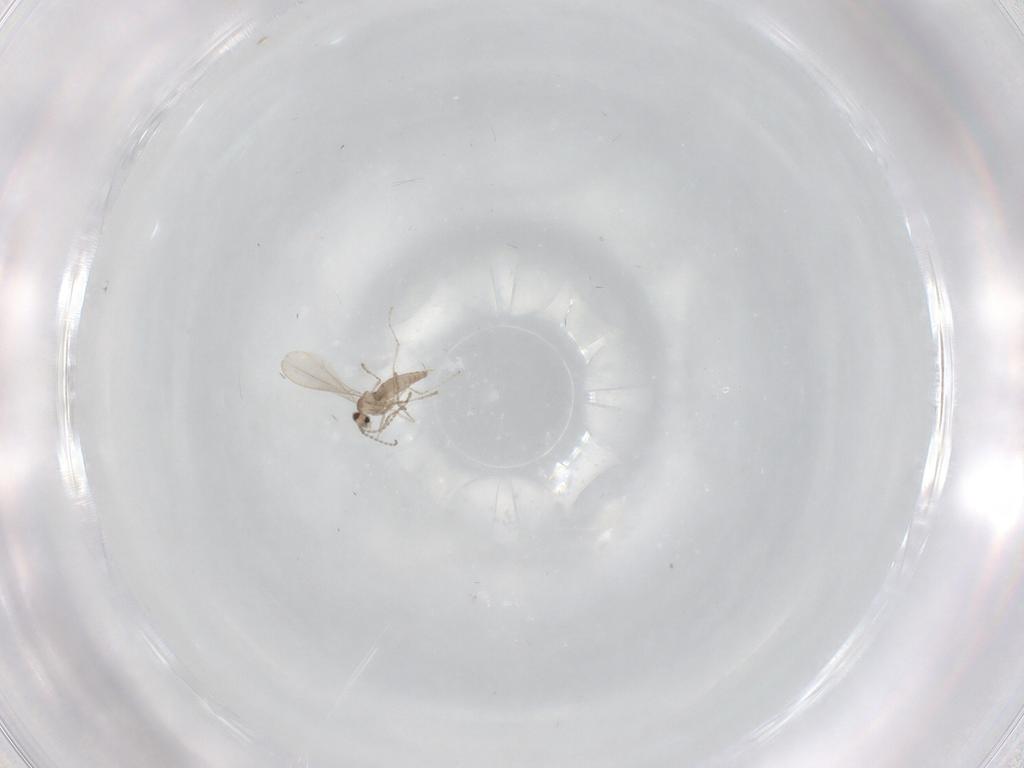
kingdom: Animalia
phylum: Arthropoda
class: Insecta
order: Diptera
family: Cecidomyiidae
